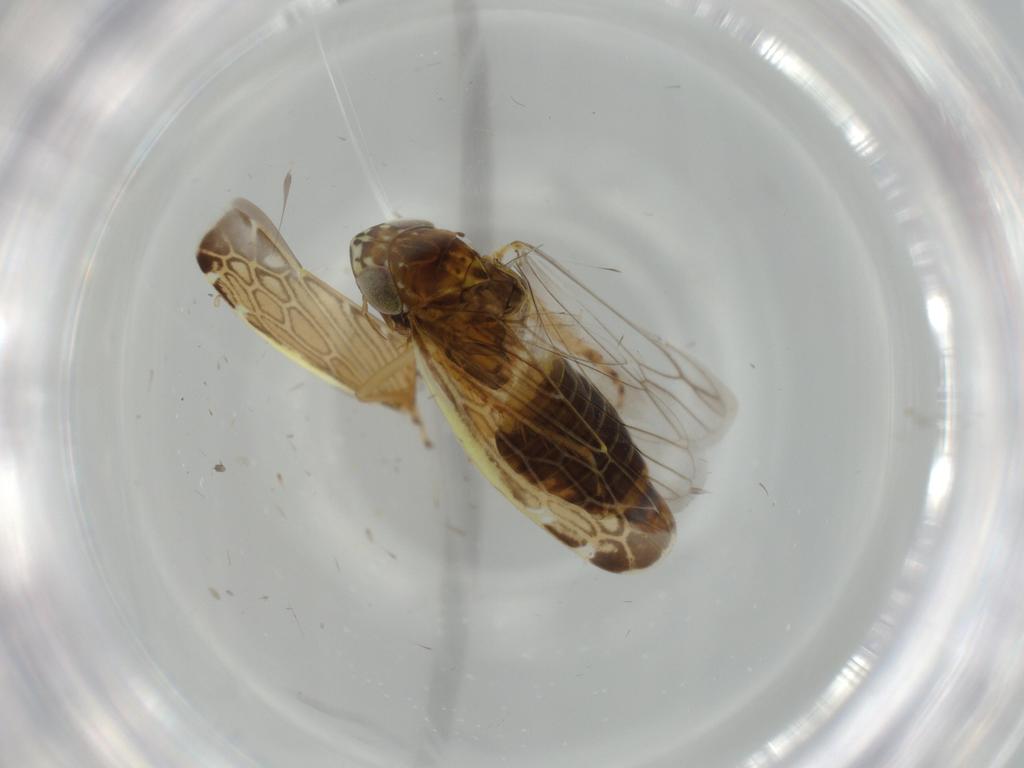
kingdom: Animalia
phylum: Arthropoda
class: Insecta
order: Hemiptera
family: Cicadellidae
